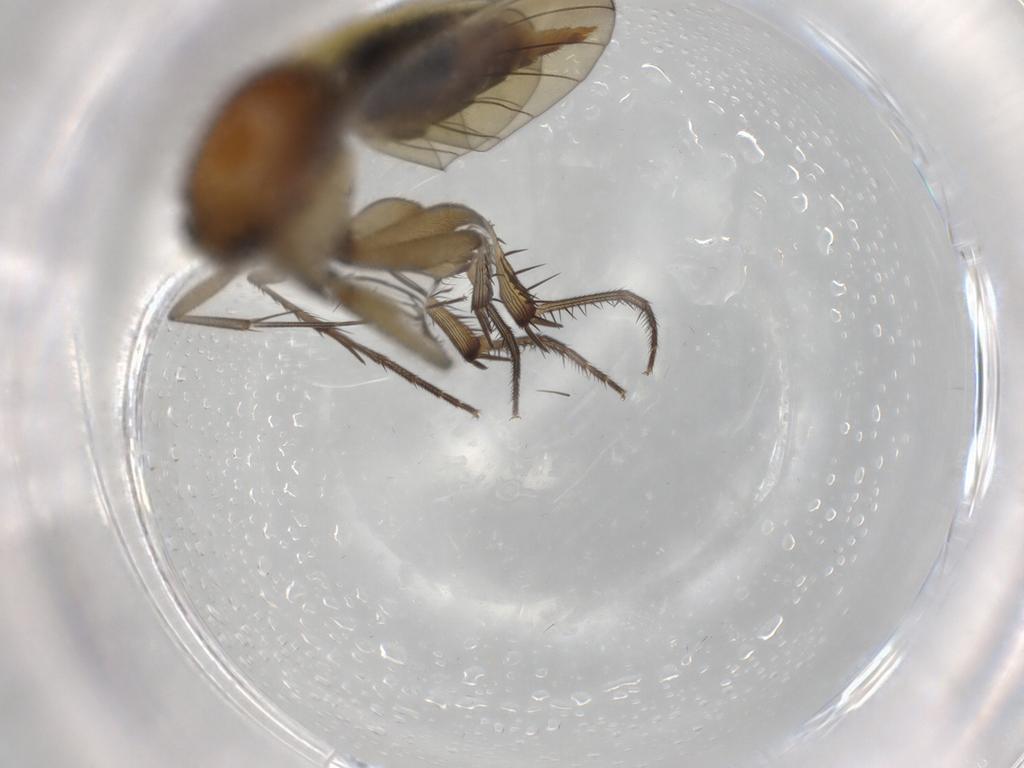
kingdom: Animalia
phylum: Arthropoda
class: Insecta
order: Diptera
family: Mycetophilidae
